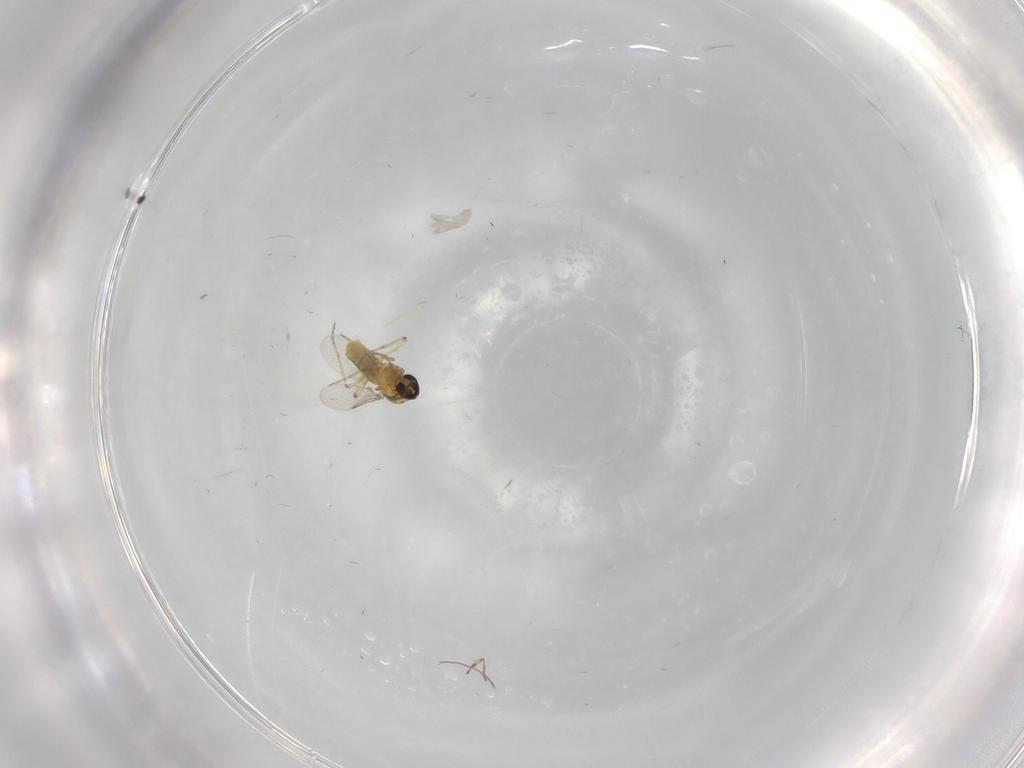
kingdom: Animalia
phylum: Arthropoda
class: Insecta
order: Diptera
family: Ceratopogonidae
